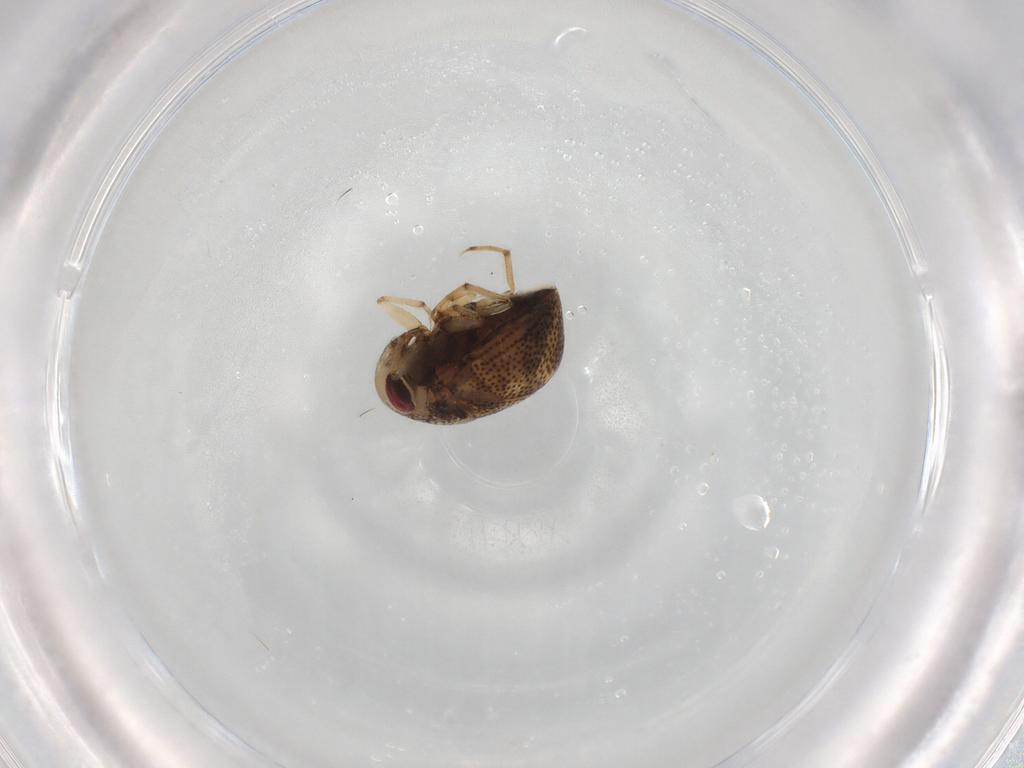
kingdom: Animalia
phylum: Arthropoda
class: Insecta
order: Hemiptera
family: Pleidae
